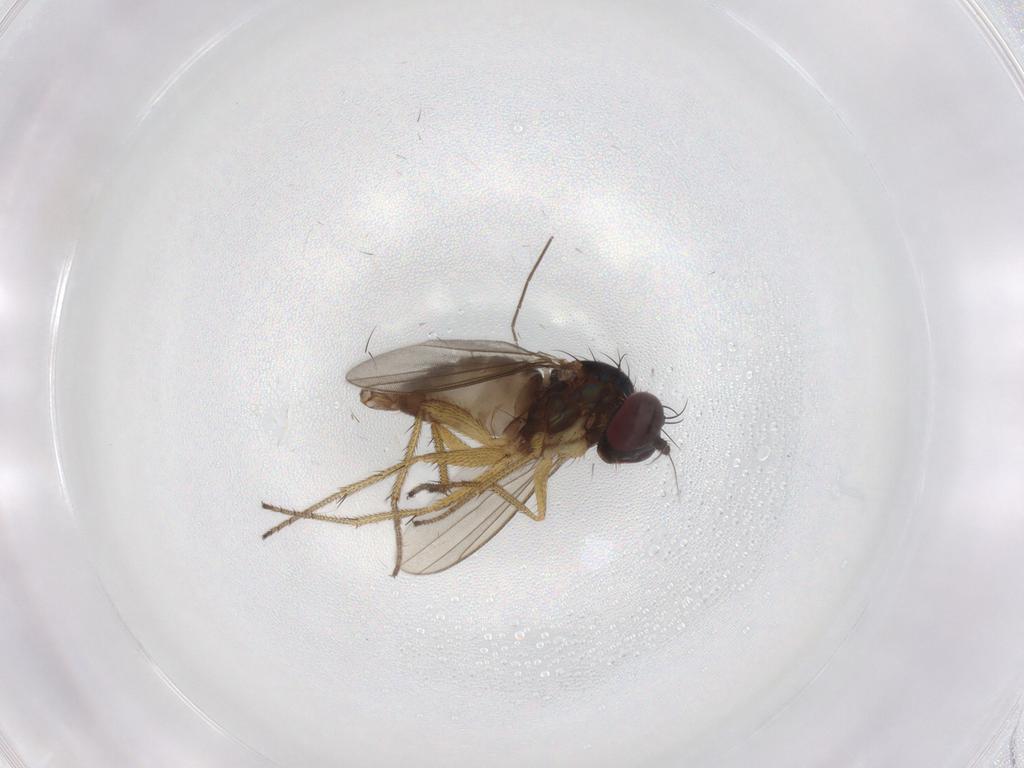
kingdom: Animalia
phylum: Arthropoda
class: Insecta
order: Diptera
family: Dolichopodidae
